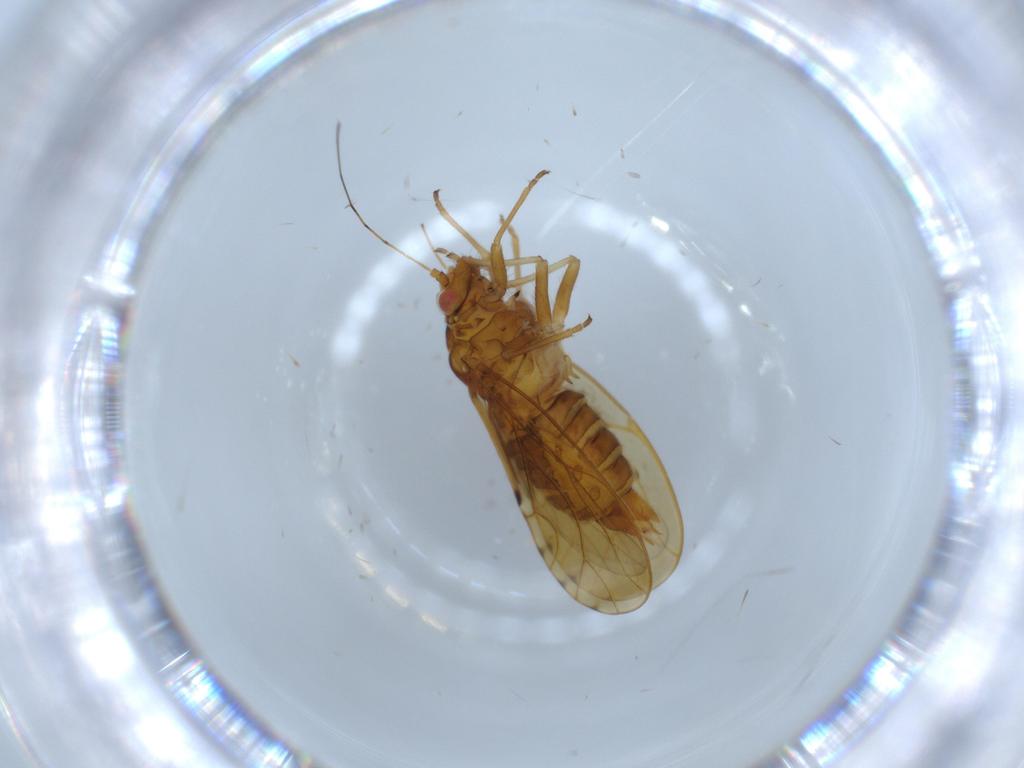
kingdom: Animalia
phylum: Arthropoda
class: Insecta
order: Hemiptera
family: Psylloidea_incertae_sedis
